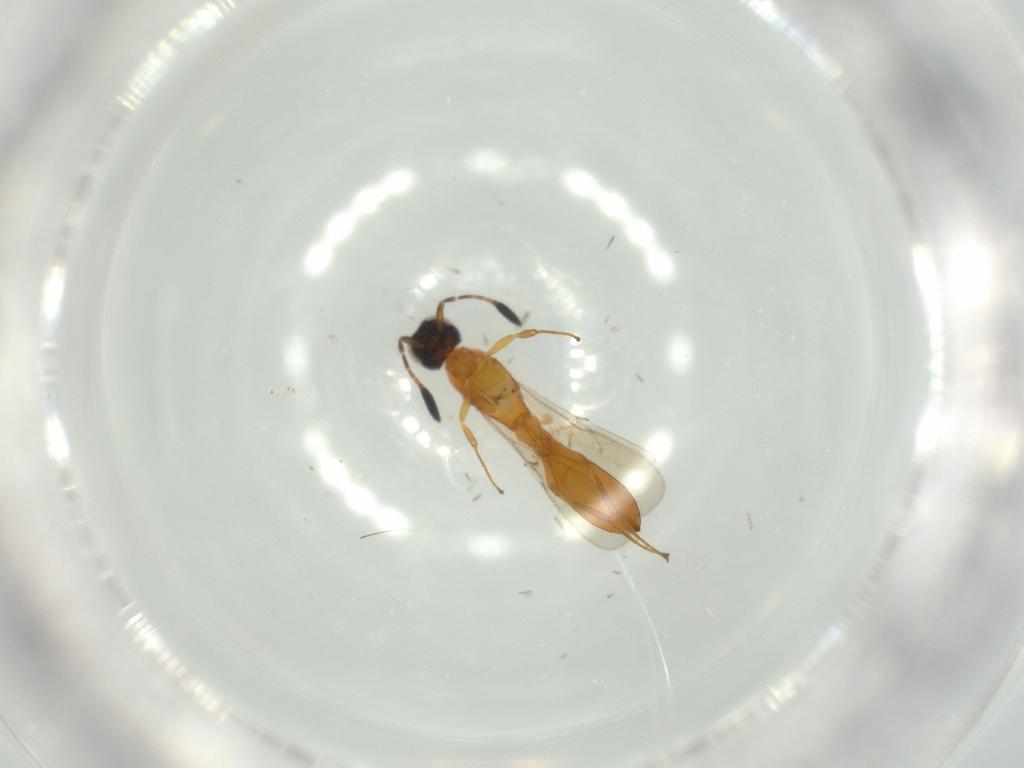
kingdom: Animalia
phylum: Arthropoda
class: Insecta
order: Hymenoptera
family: Scelionidae
